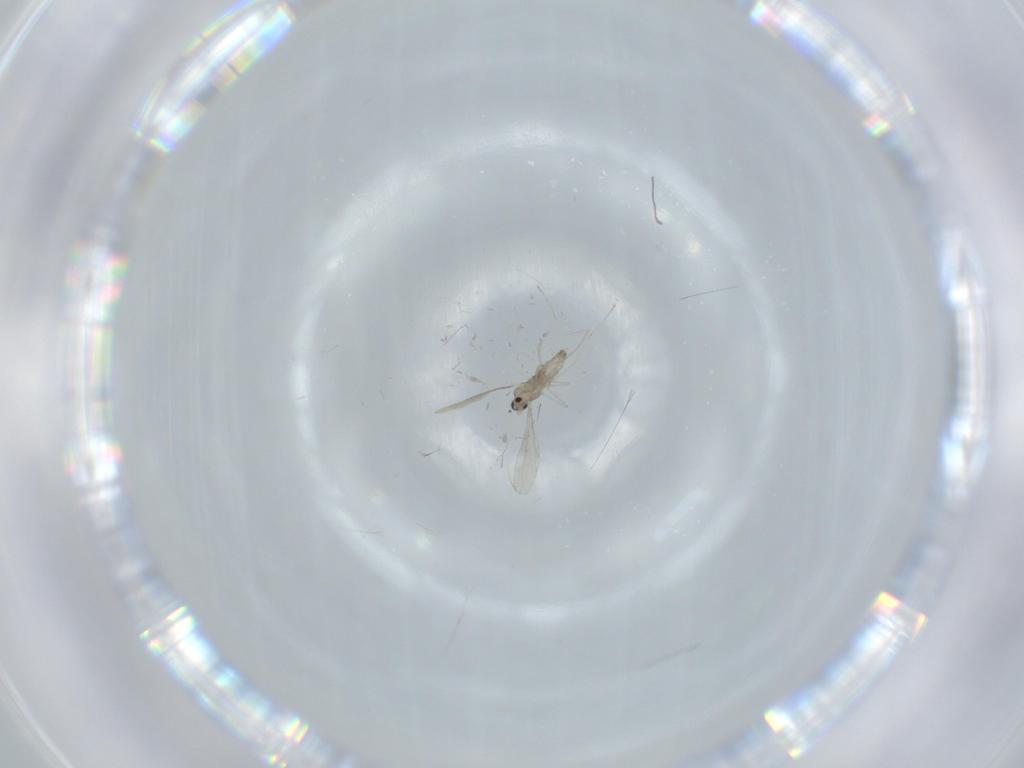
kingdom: Animalia
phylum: Arthropoda
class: Insecta
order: Diptera
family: Cecidomyiidae
